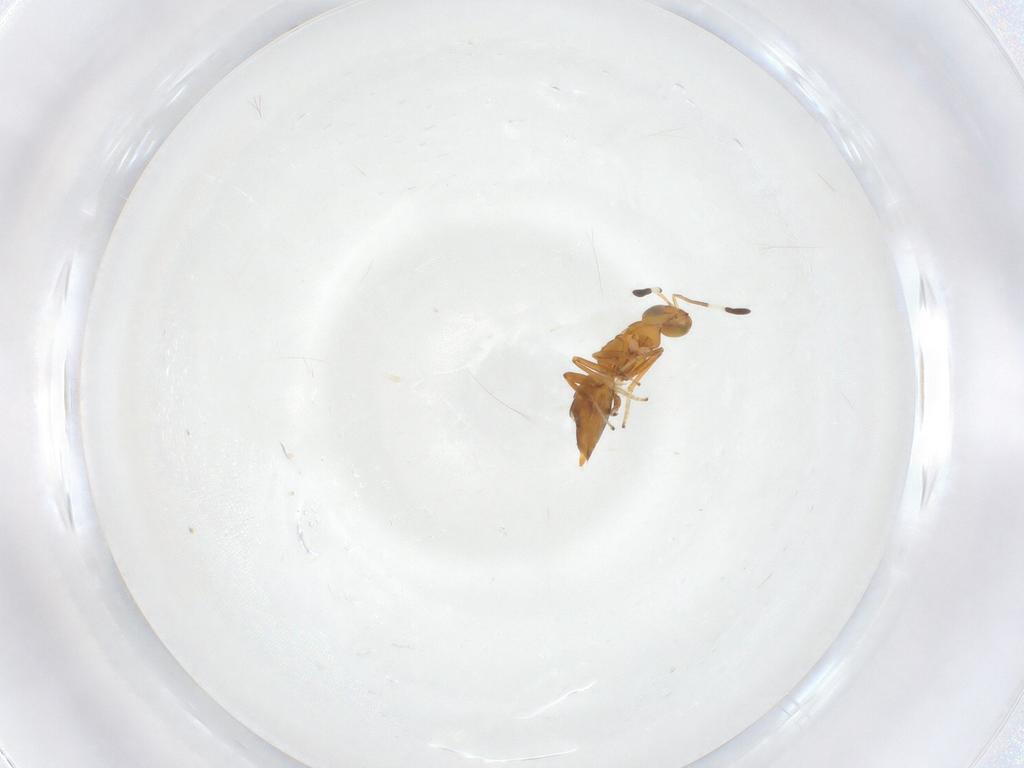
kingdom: Animalia
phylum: Arthropoda
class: Insecta
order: Hymenoptera
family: Encyrtidae
